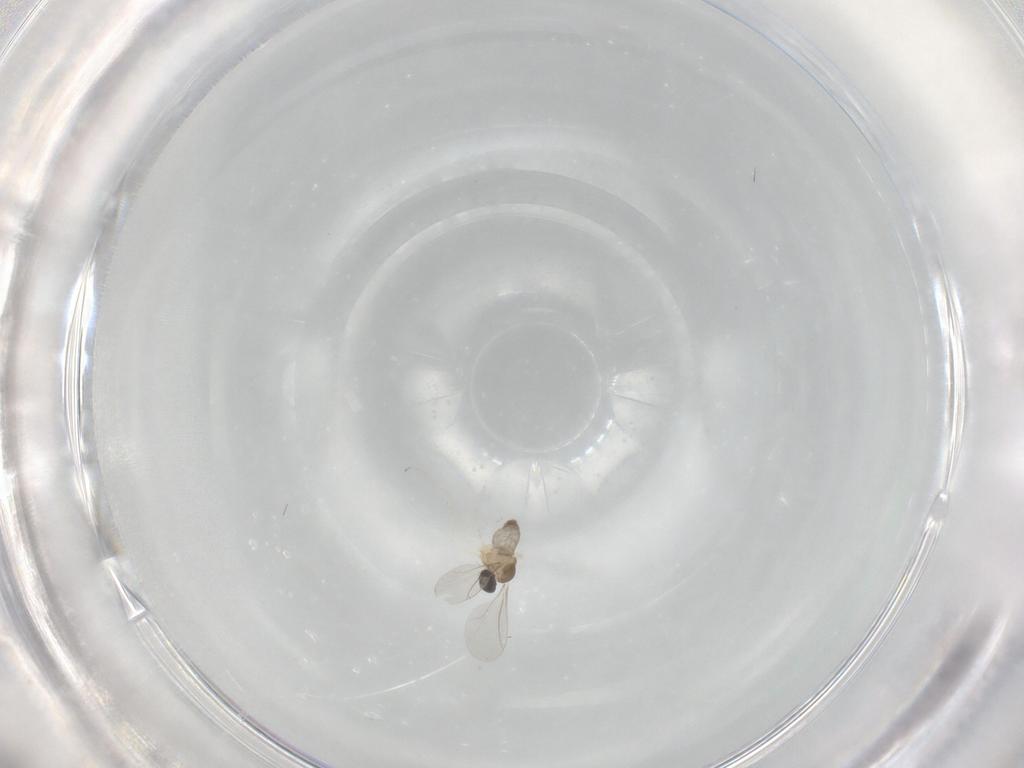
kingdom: Animalia
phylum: Arthropoda
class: Insecta
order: Diptera
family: Cecidomyiidae
